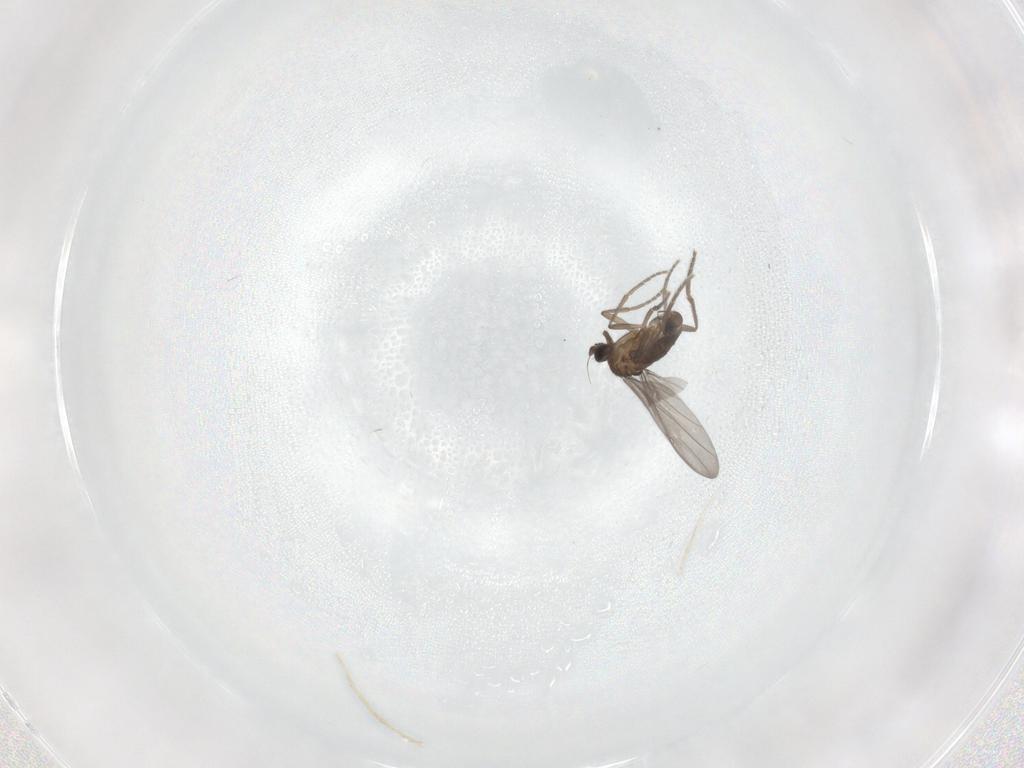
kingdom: Animalia
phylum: Arthropoda
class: Insecta
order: Diptera
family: Phoridae
